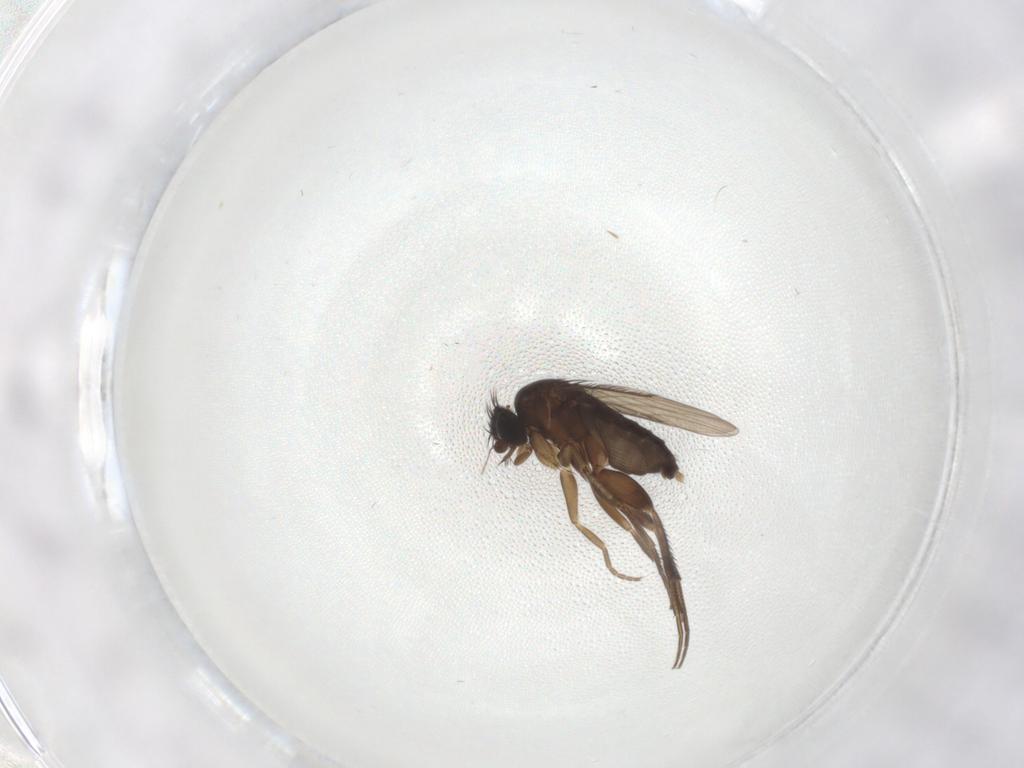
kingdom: Animalia
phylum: Arthropoda
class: Insecta
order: Diptera
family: Phoridae
